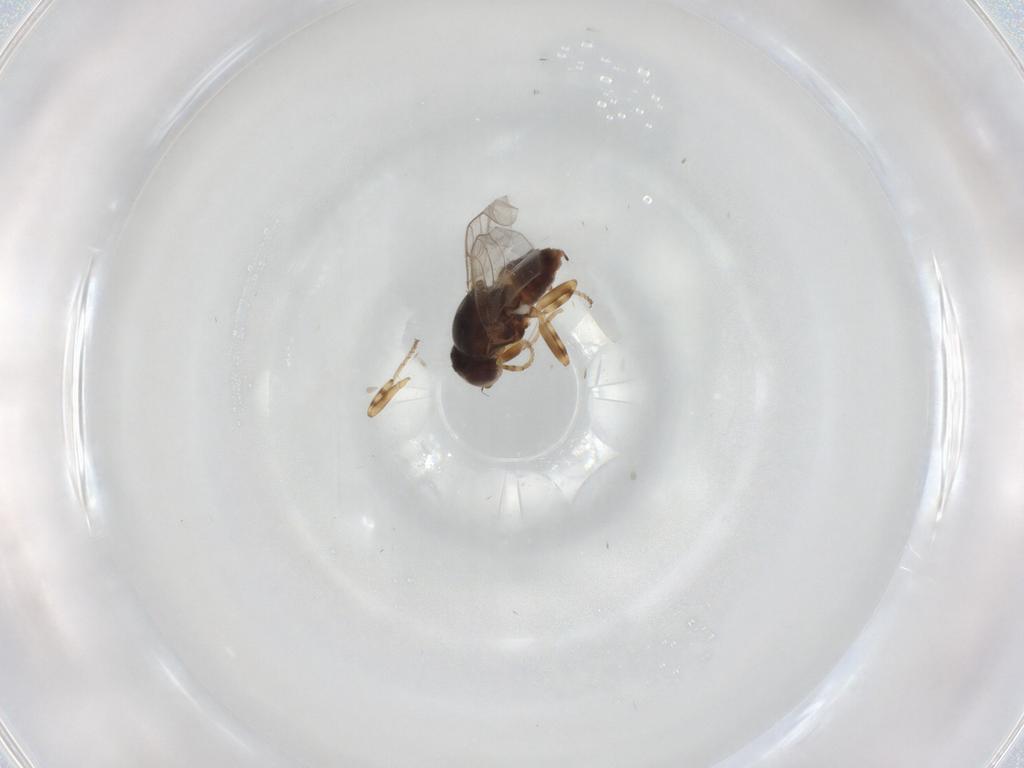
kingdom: Animalia
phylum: Arthropoda
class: Insecta
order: Diptera
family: Chloropidae
